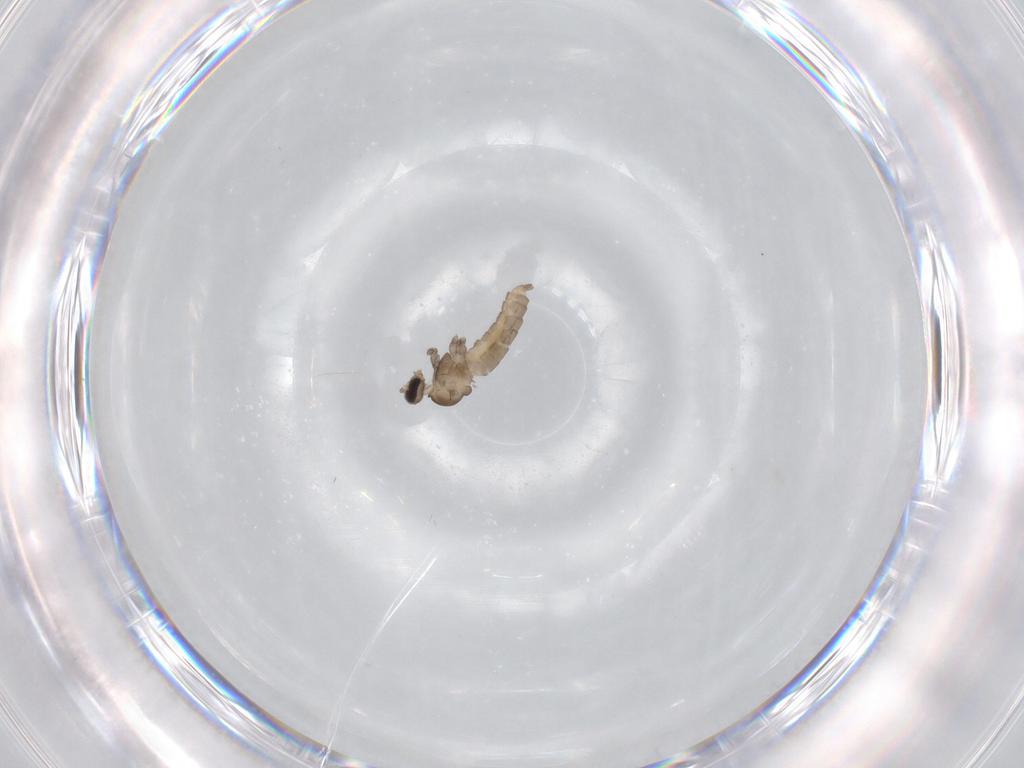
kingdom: Animalia
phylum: Arthropoda
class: Insecta
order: Diptera
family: Cecidomyiidae
